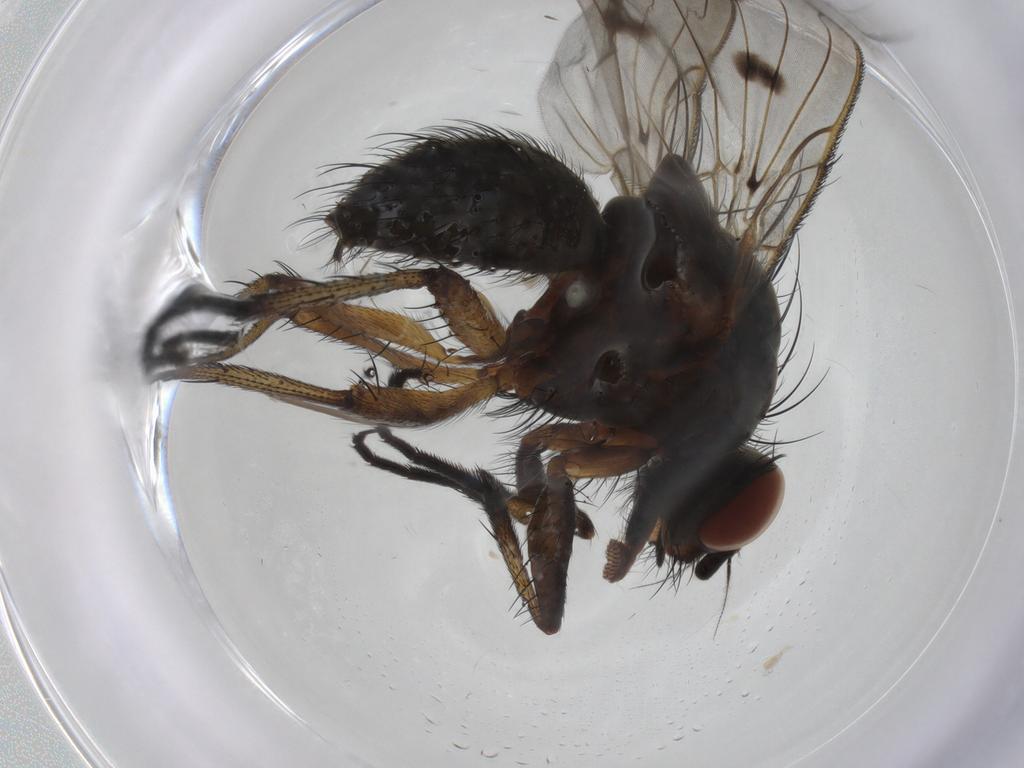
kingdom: Animalia
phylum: Arthropoda
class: Insecta
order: Diptera
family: Anthomyiidae
